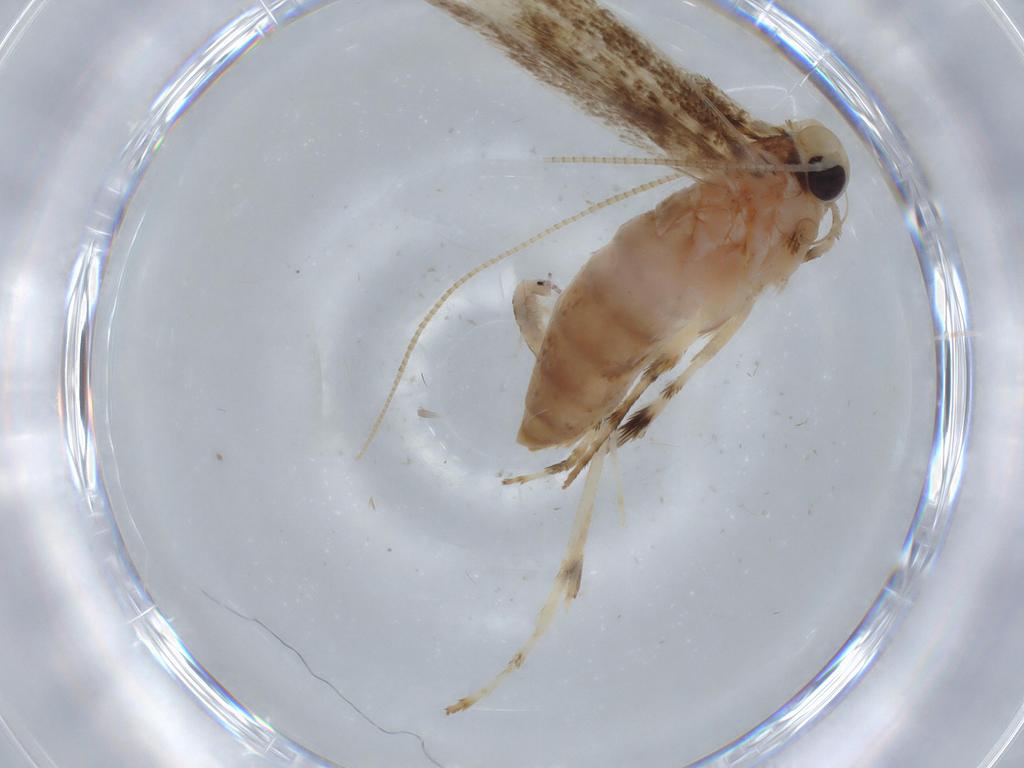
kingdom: Animalia
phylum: Arthropoda
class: Insecta
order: Lepidoptera
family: Gracillariidae
